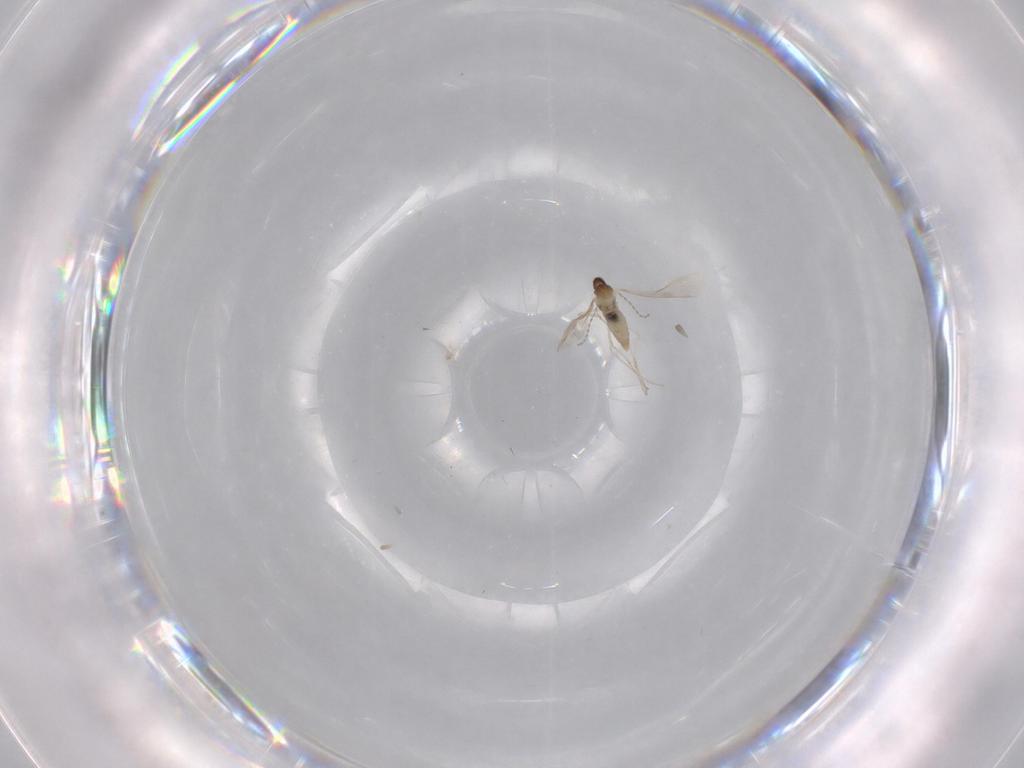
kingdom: Animalia
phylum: Arthropoda
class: Insecta
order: Diptera
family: Cecidomyiidae
